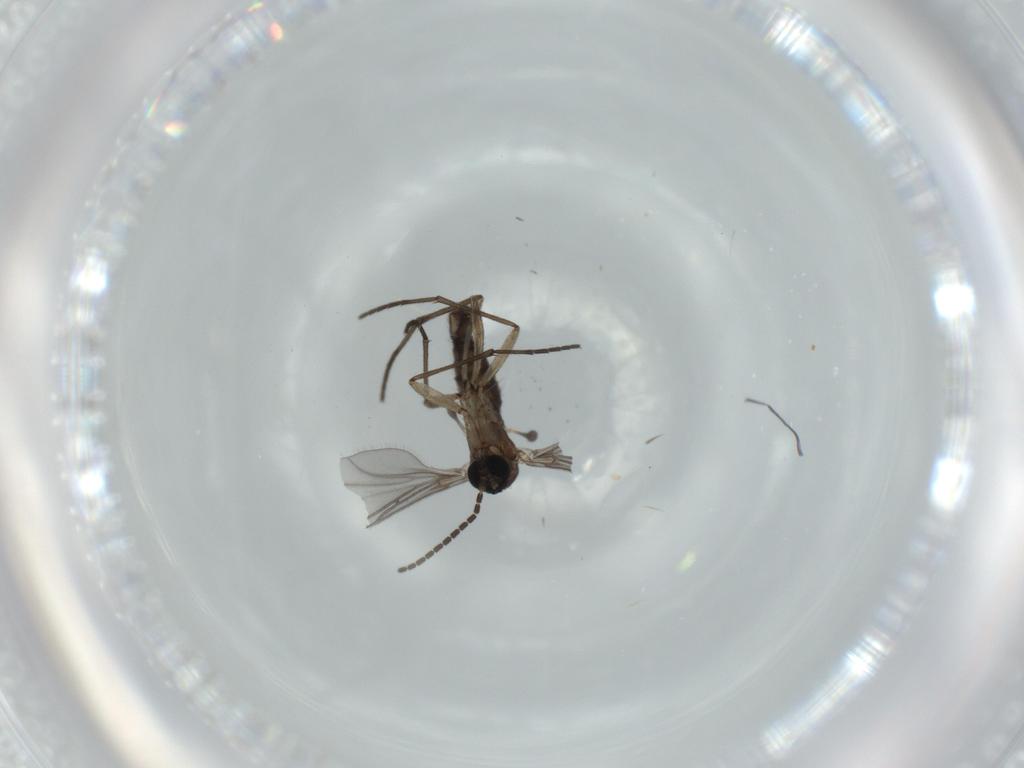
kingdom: Animalia
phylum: Arthropoda
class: Insecta
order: Diptera
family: Sciaridae
